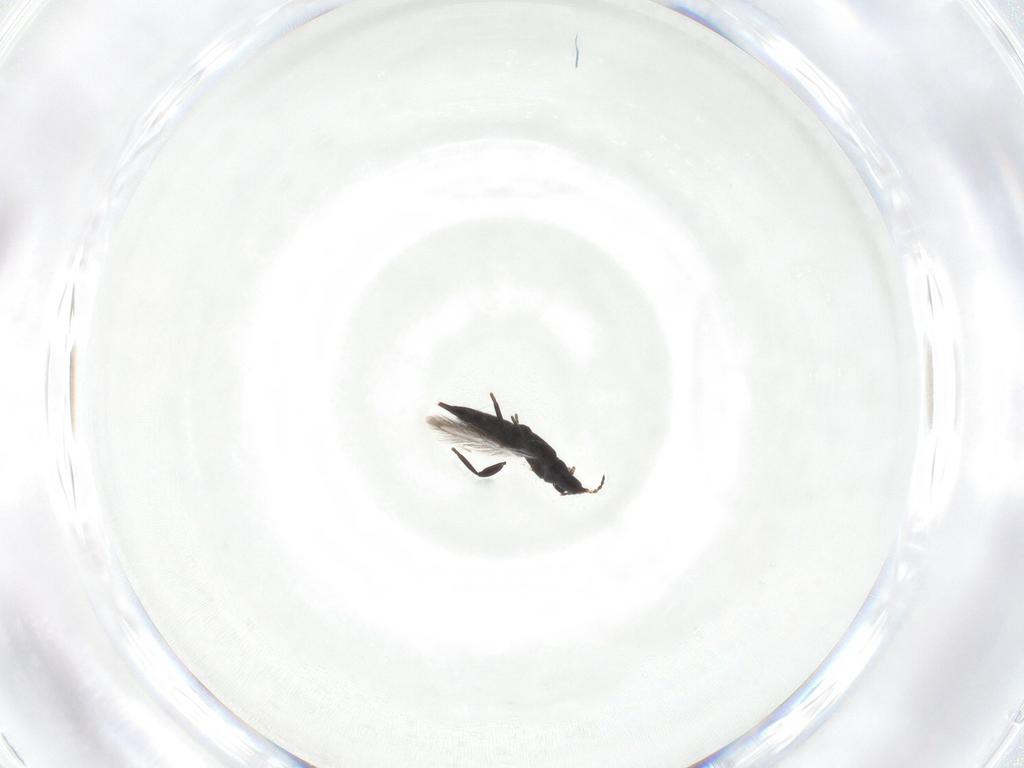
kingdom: Animalia
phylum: Arthropoda
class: Insecta
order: Thysanoptera
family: Phlaeothripidae
